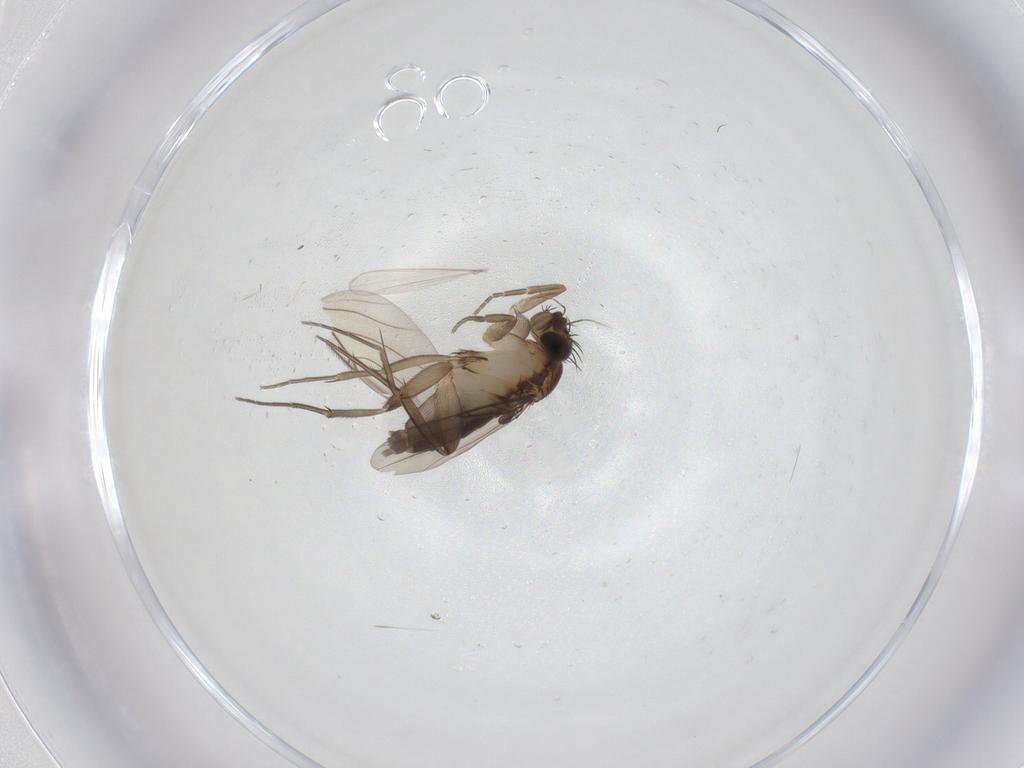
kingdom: Animalia
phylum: Arthropoda
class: Insecta
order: Diptera
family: Phoridae
